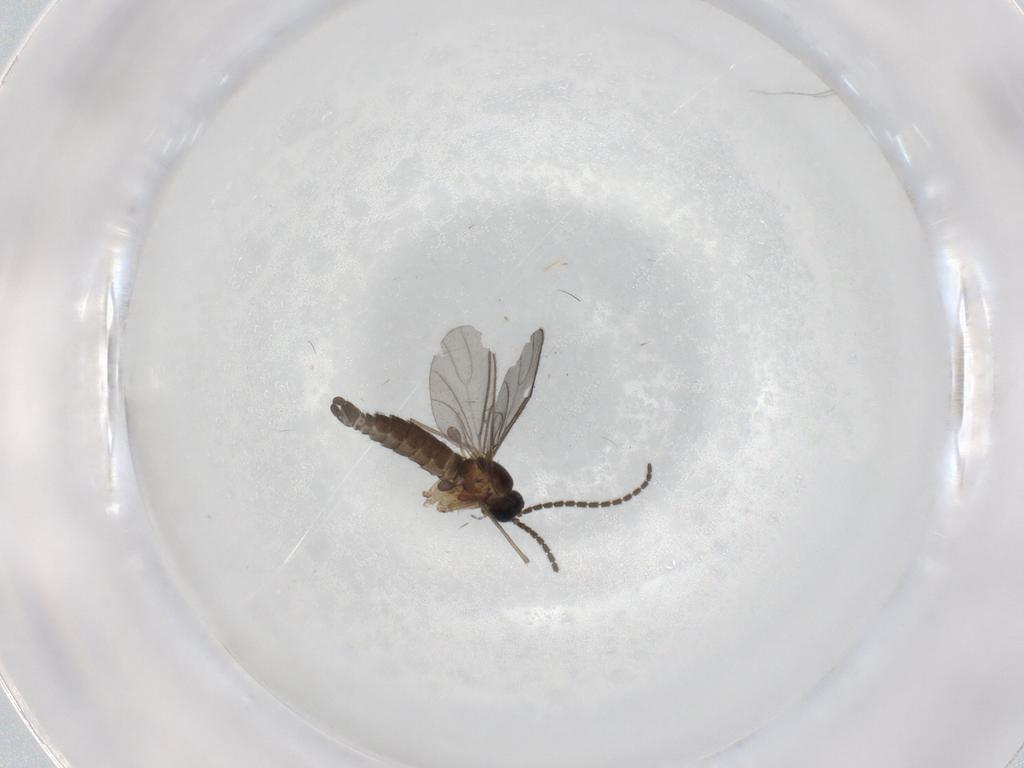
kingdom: Animalia
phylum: Arthropoda
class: Insecta
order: Diptera
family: Sciaridae
